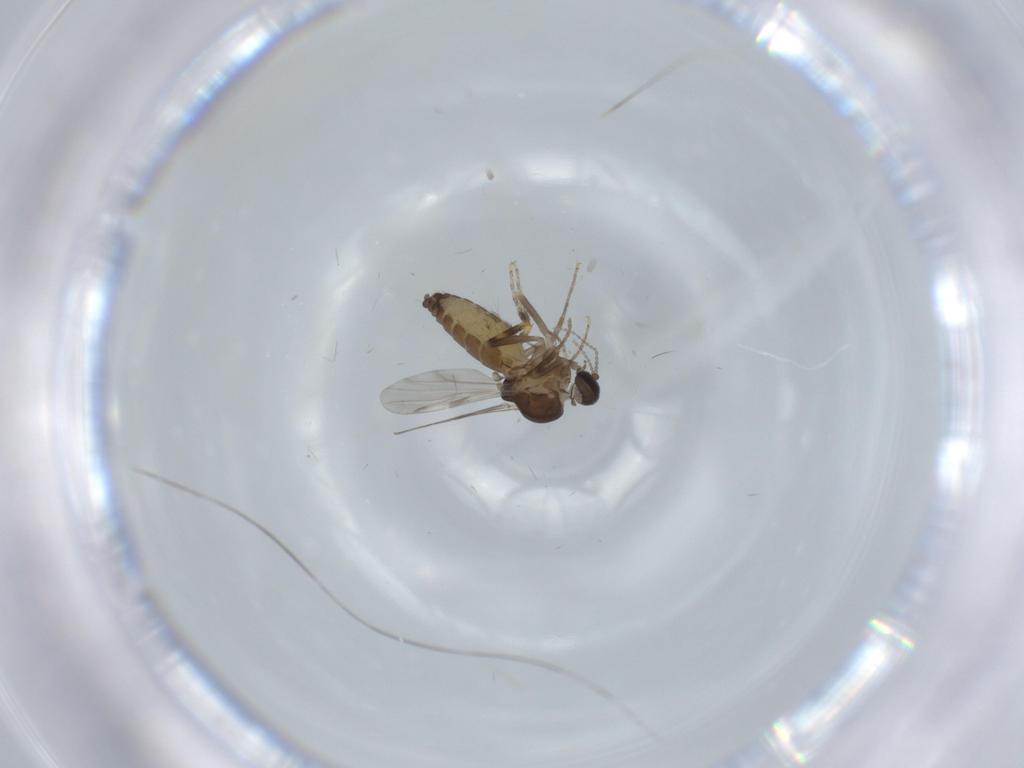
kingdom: Animalia
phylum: Arthropoda
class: Insecta
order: Diptera
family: Ceratopogonidae
